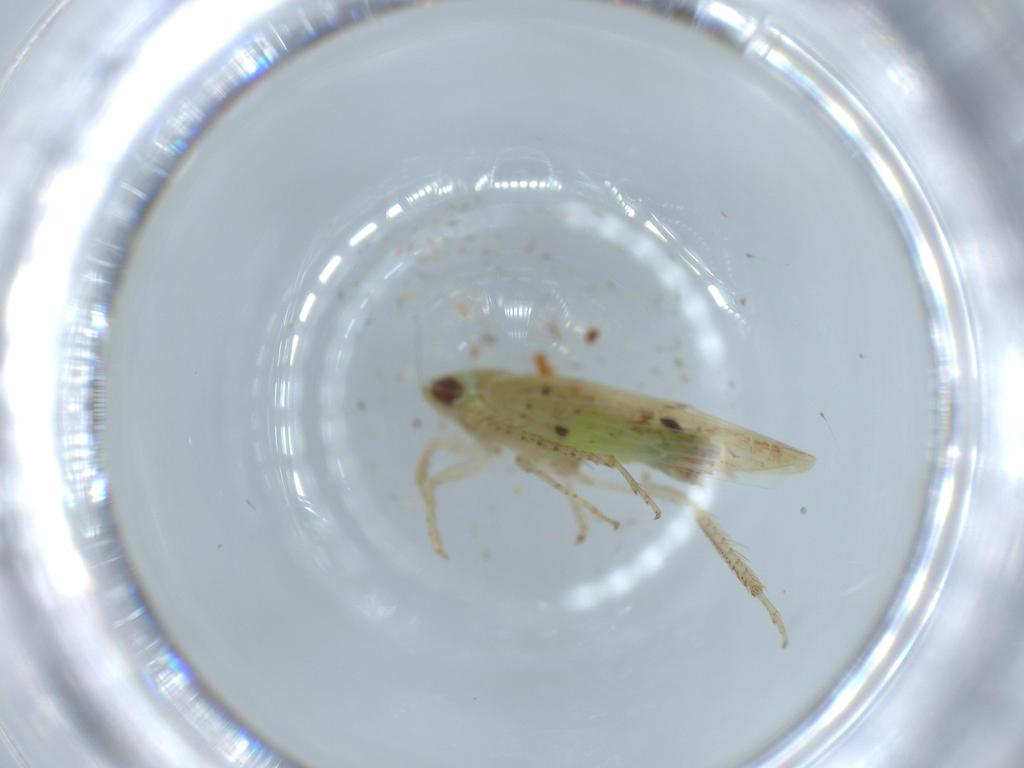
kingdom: Animalia
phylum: Arthropoda
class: Insecta
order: Hemiptera
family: Cicadellidae
